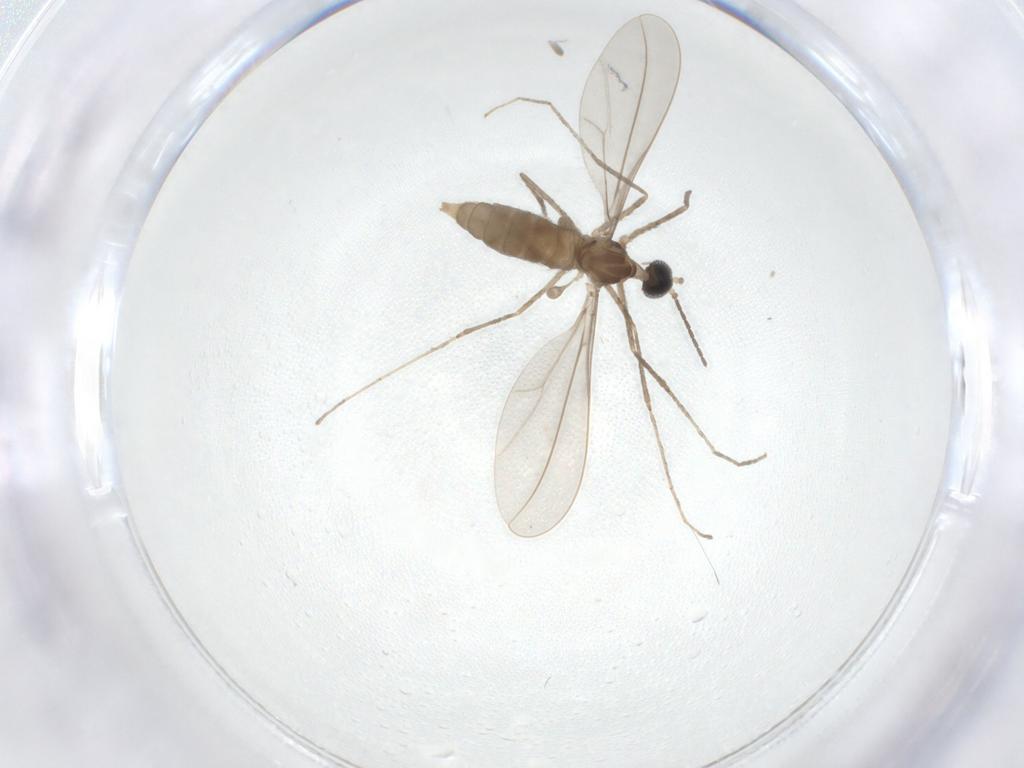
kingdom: Animalia
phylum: Arthropoda
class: Insecta
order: Diptera
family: Cecidomyiidae
